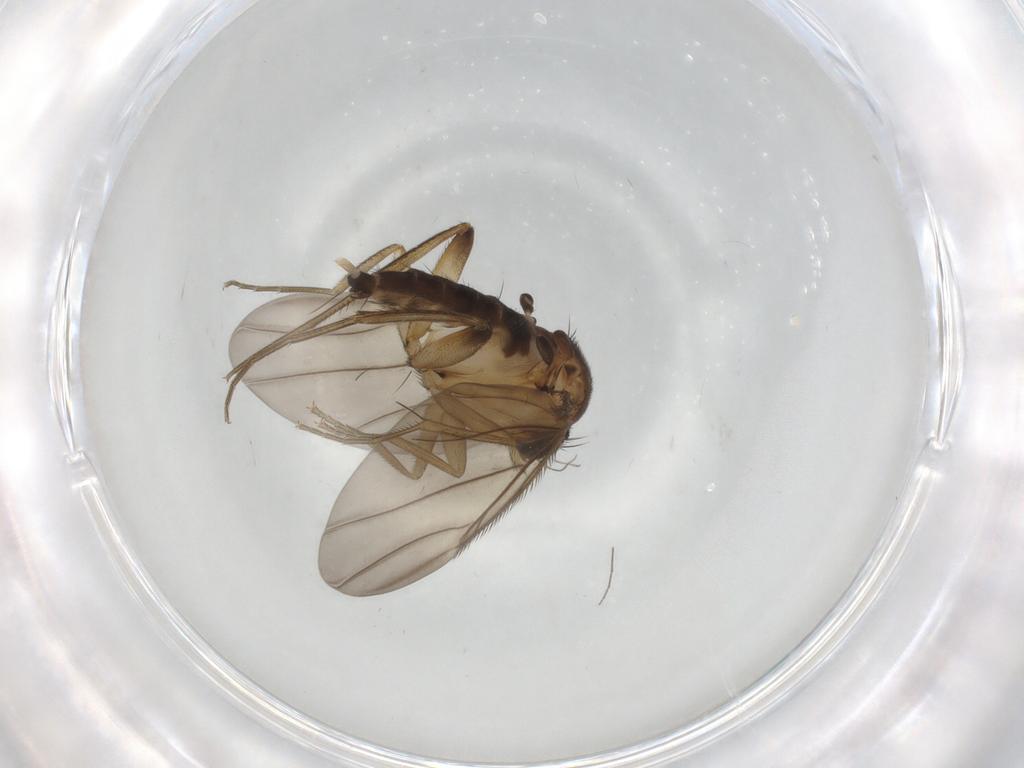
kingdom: Animalia
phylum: Arthropoda
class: Insecta
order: Diptera
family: Phoridae
